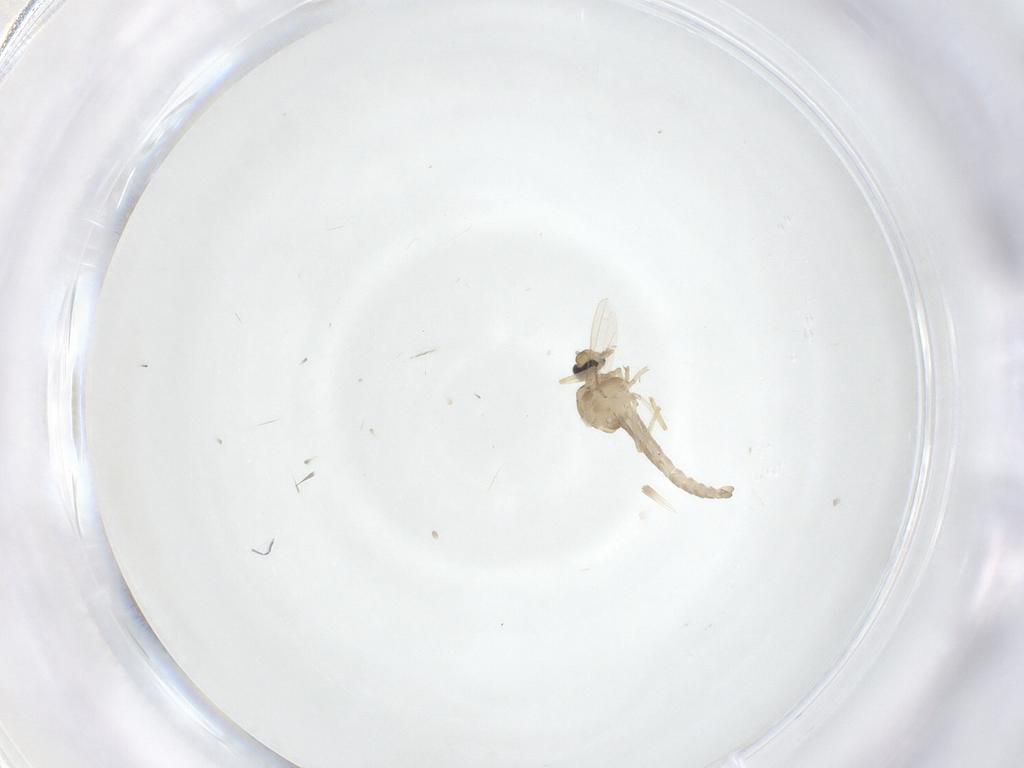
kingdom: Animalia
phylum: Arthropoda
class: Insecta
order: Diptera
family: Ceratopogonidae
